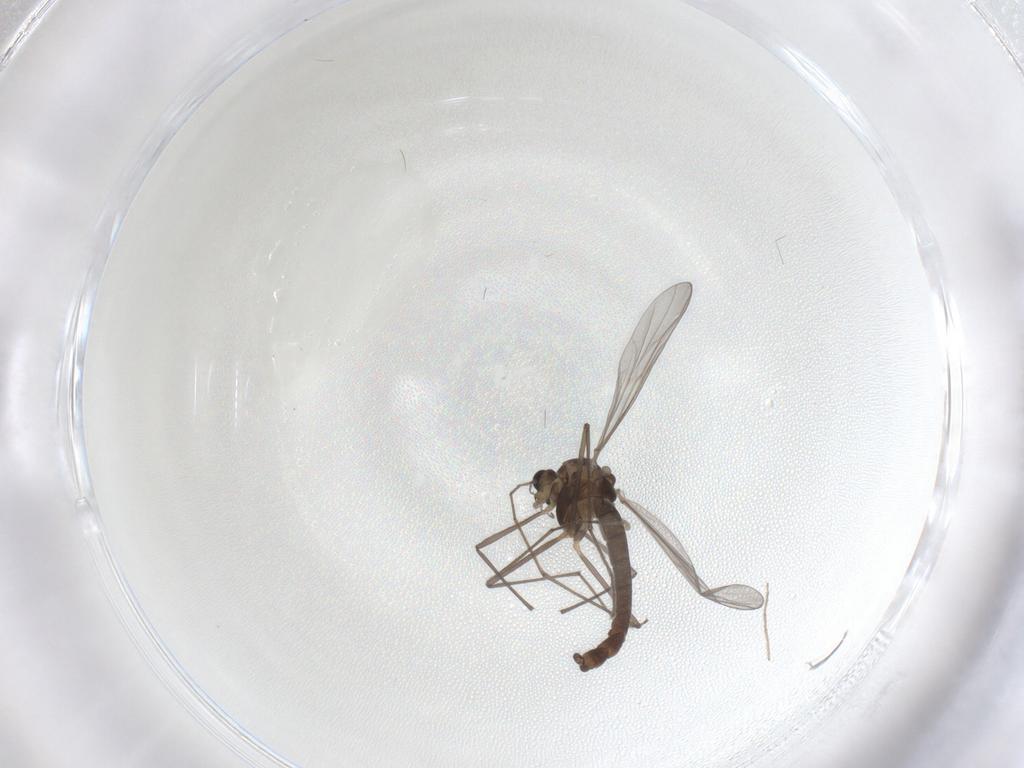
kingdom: Animalia
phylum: Arthropoda
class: Insecta
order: Diptera
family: Chironomidae
